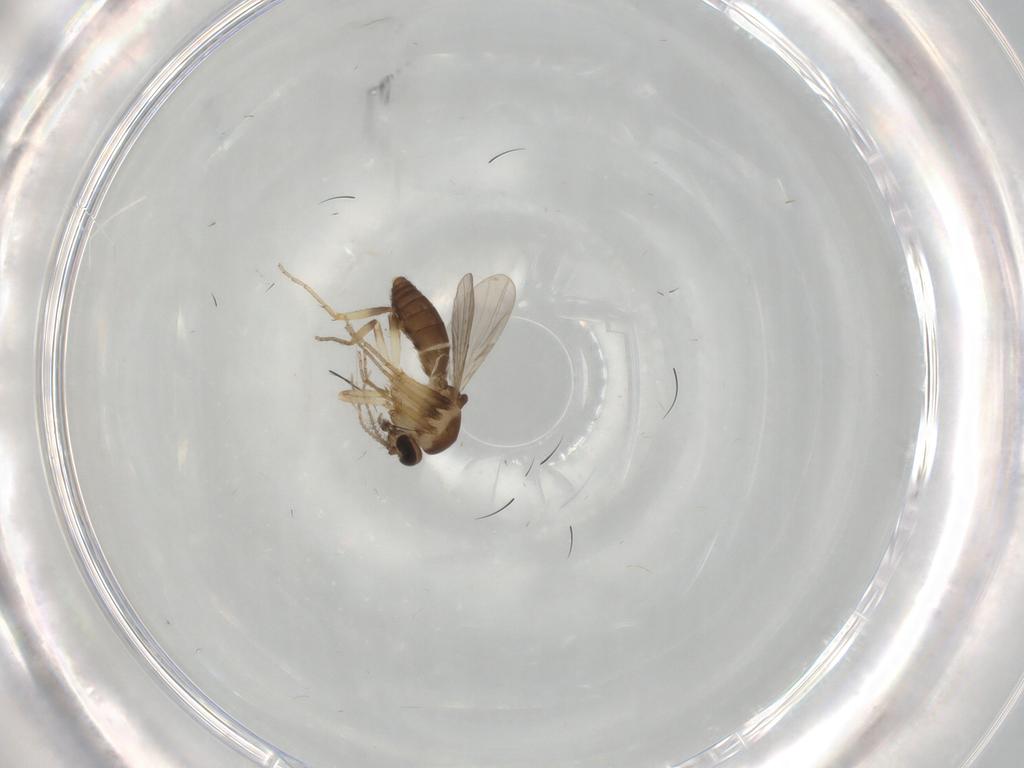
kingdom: Animalia
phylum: Arthropoda
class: Insecta
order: Diptera
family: Ceratopogonidae
